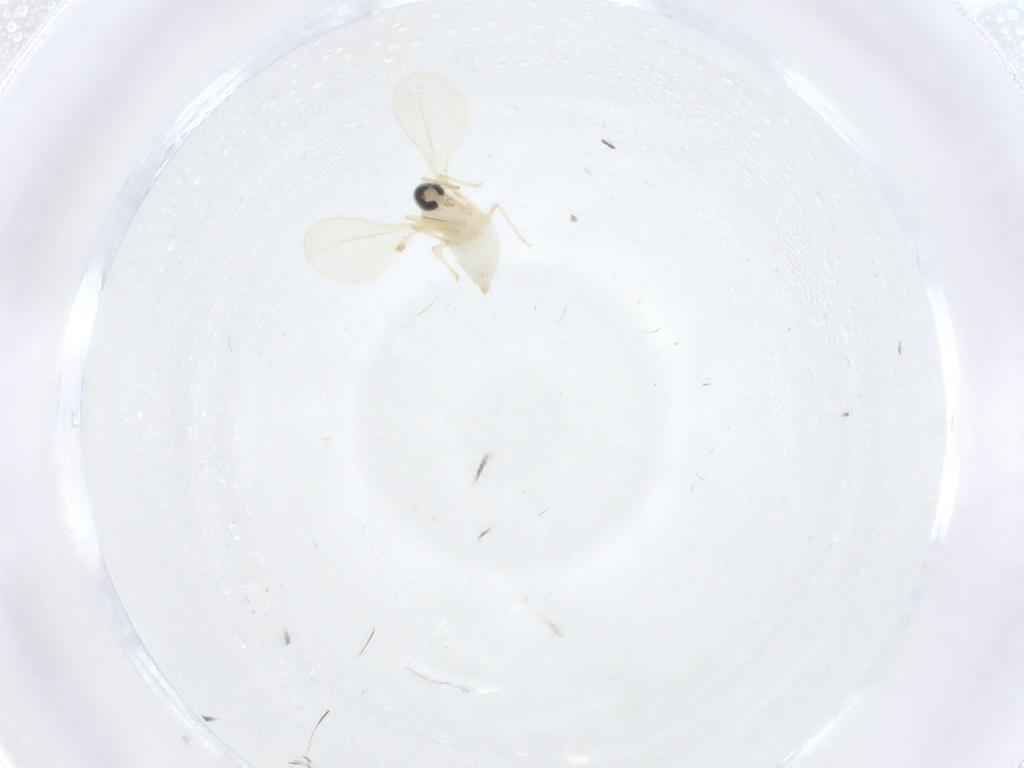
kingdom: Animalia
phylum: Arthropoda
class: Insecta
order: Diptera
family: Cecidomyiidae
